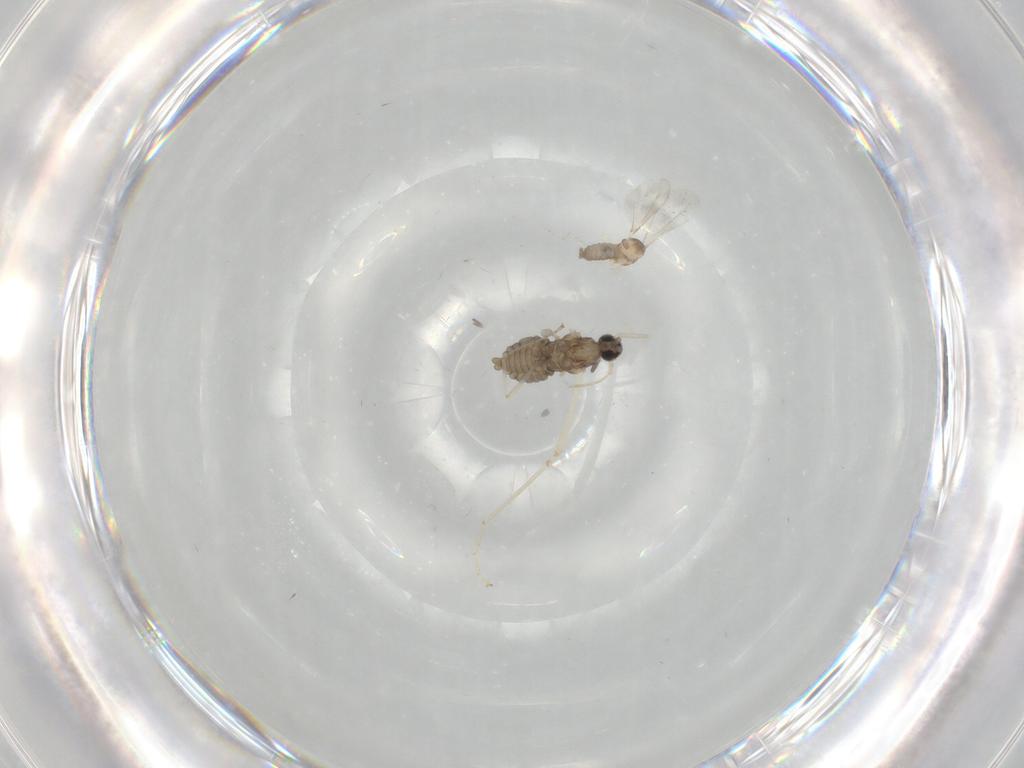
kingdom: Animalia
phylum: Arthropoda
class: Insecta
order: Diptera
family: Cecidomyiidae
